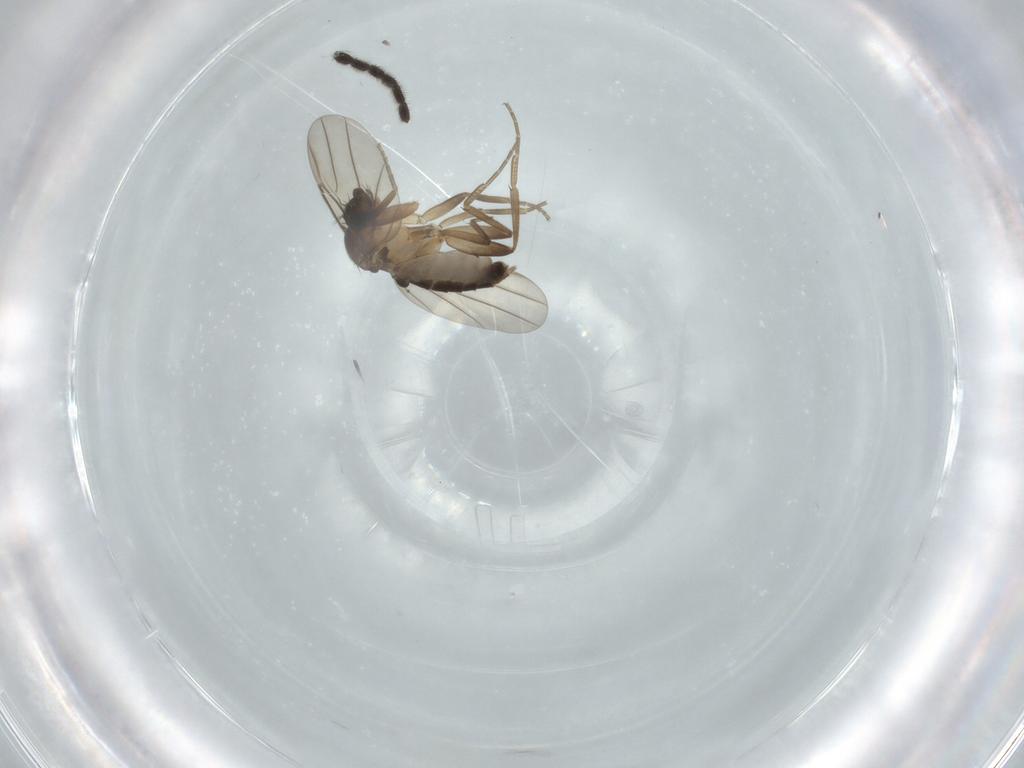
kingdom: Animalia
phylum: Arthropoda
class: Insecta
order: Diptera
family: Phoridae
